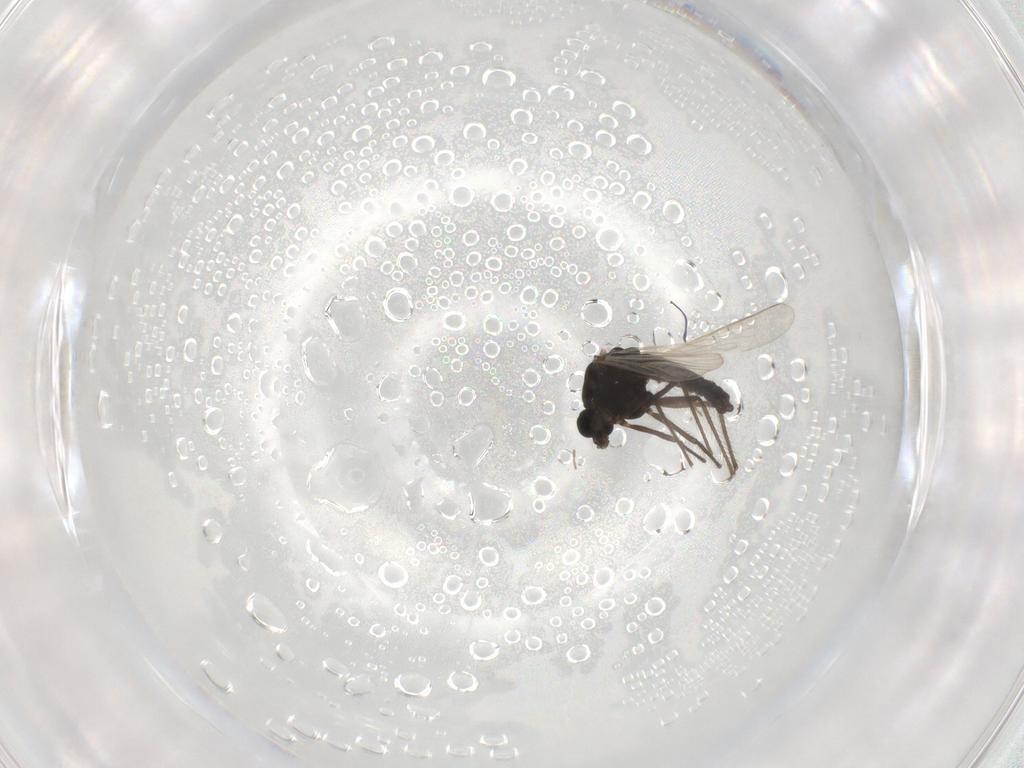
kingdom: Animalia
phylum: Arthropoda
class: Insecta
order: Diptera
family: Chironomidae
